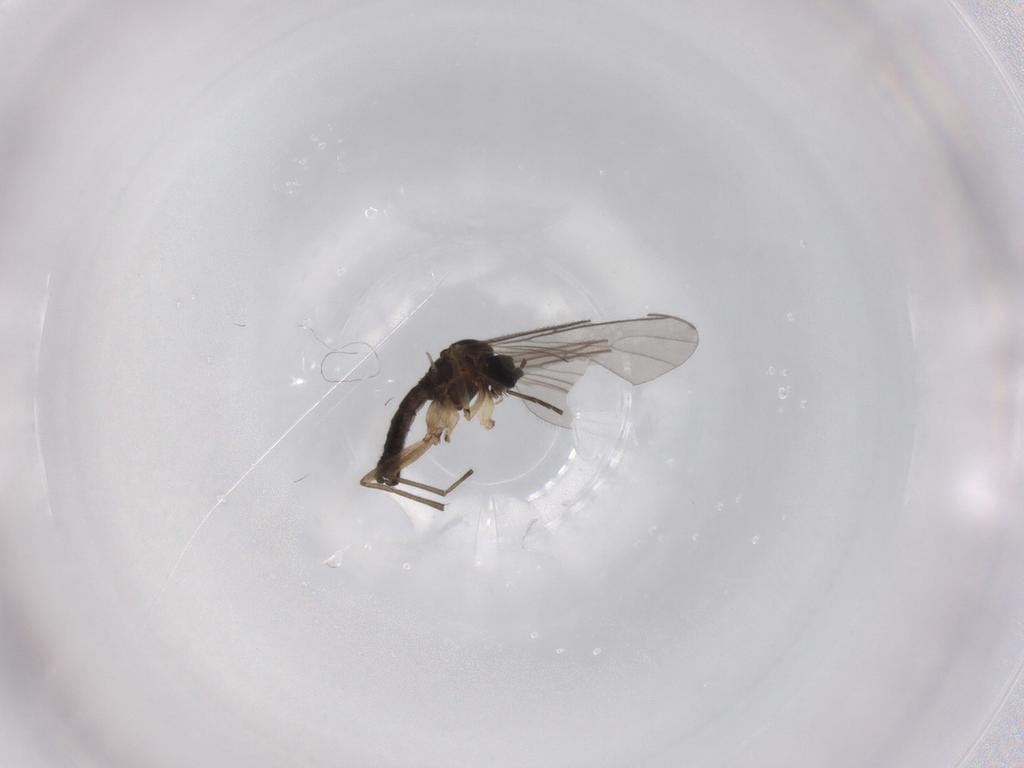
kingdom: Animalia
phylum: Arthropoda
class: Insecta
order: Diptera
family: Sciaridae
